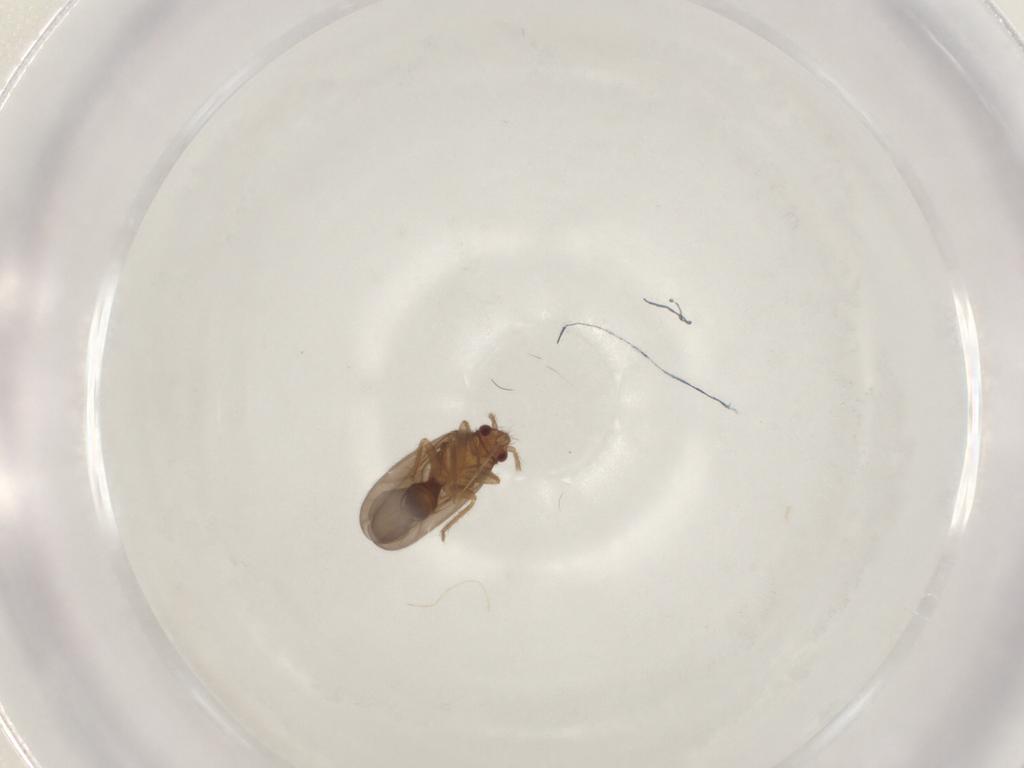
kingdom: Animalia
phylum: Arthropoda
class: Insecta
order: Hemiptera
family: Ceratocombidae
